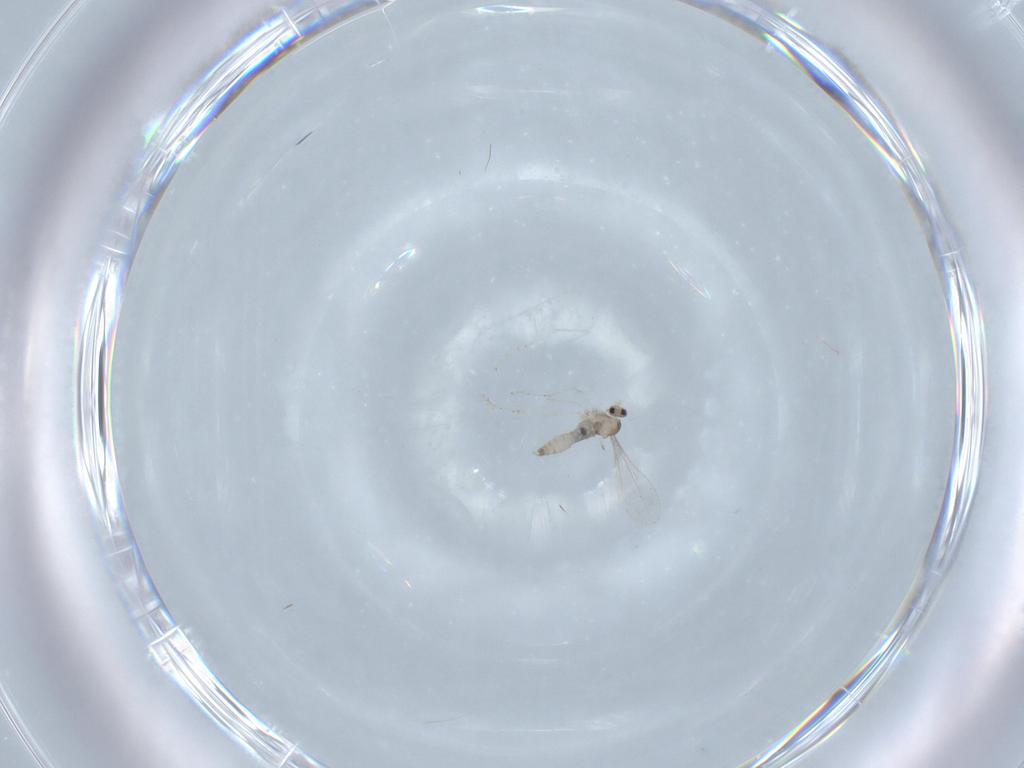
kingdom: Animalia
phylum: Arthropoda
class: Insecta
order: Diptera
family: Cecidomyiidae
